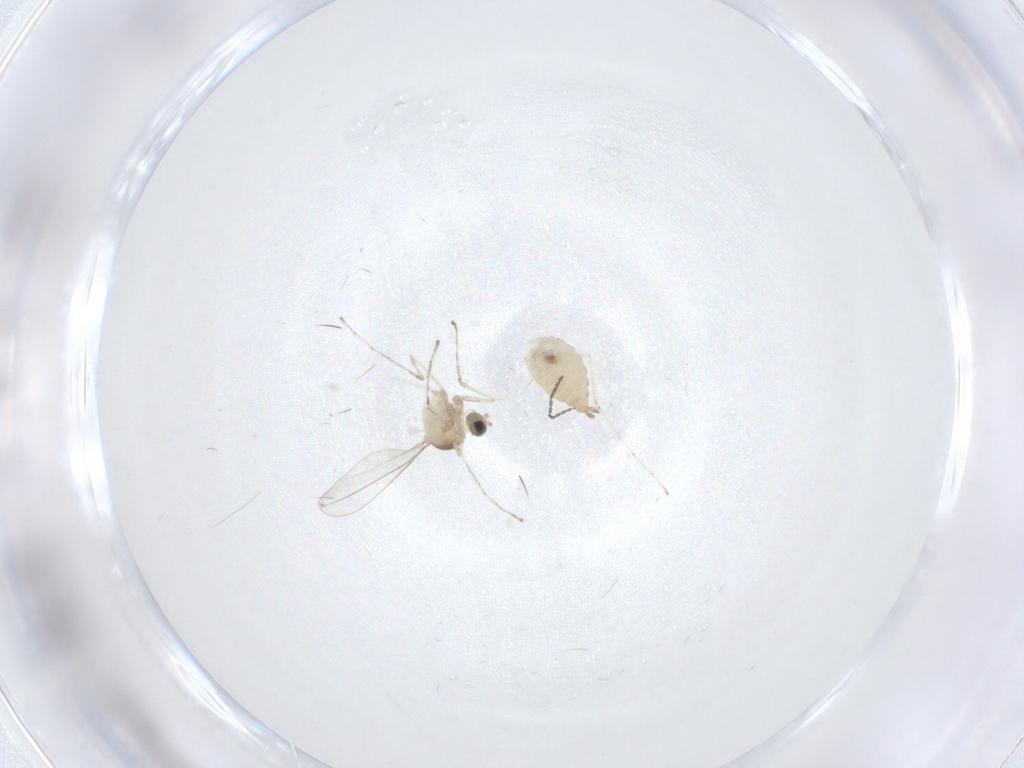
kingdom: Animalia
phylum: Arthropoda
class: Insecta
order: Diptera
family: Cecidomyiidae
